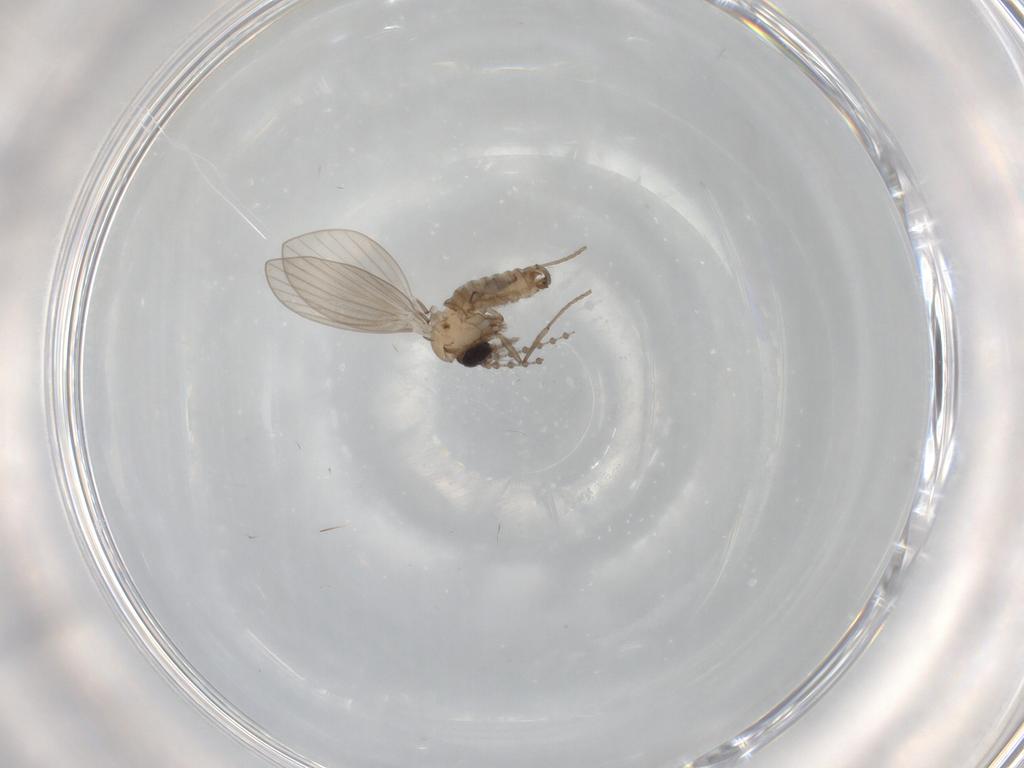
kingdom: Animalia
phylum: Arthropoda
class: Insecta
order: Diptera
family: Psychodidae
